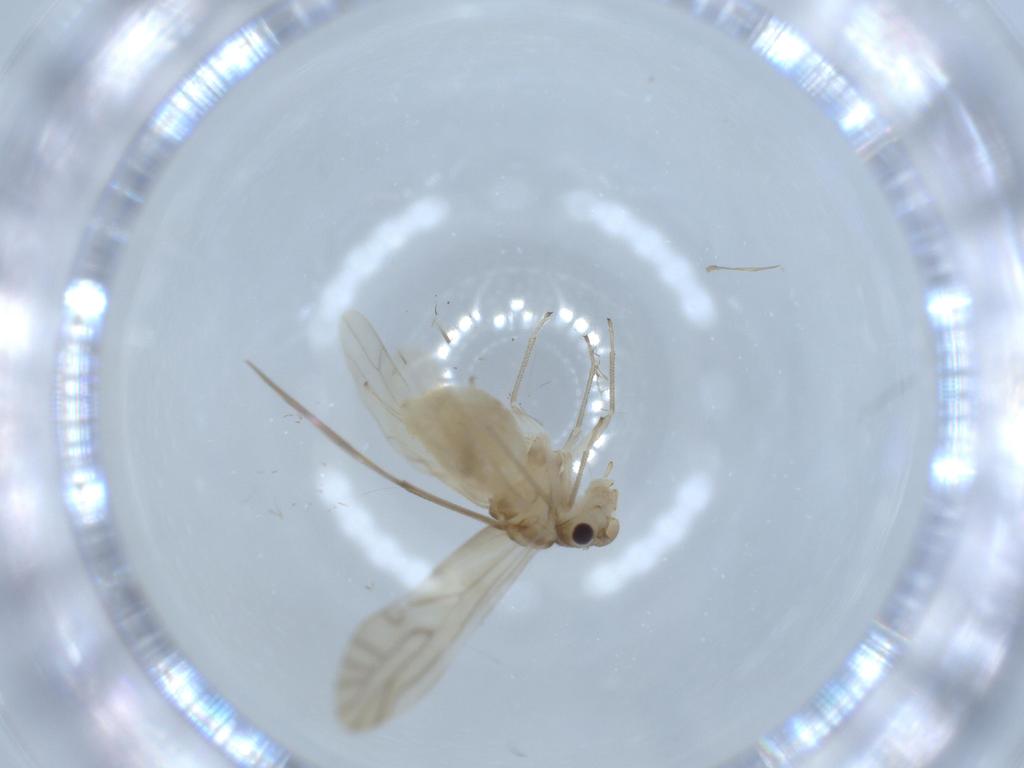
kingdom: Animalia
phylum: Arthropoda
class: Insecta
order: Psocodea
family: Caeciliusidae
